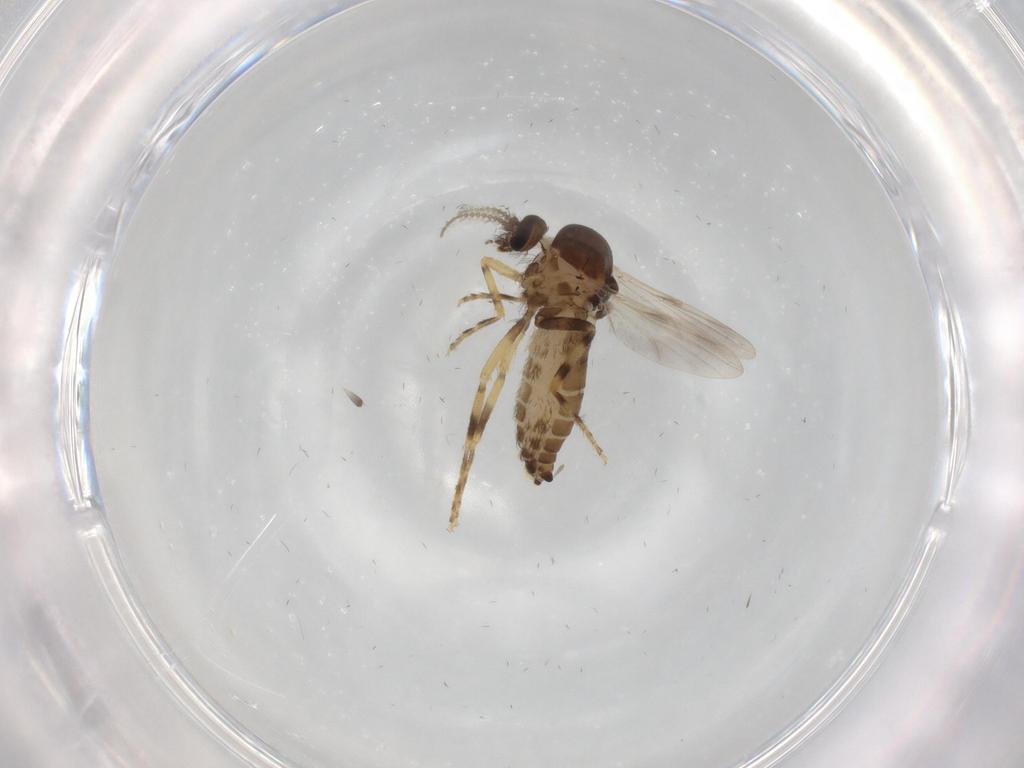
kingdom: Animalia
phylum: Arthropoda
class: Insecta
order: Diptera
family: Ceratopogonidae
